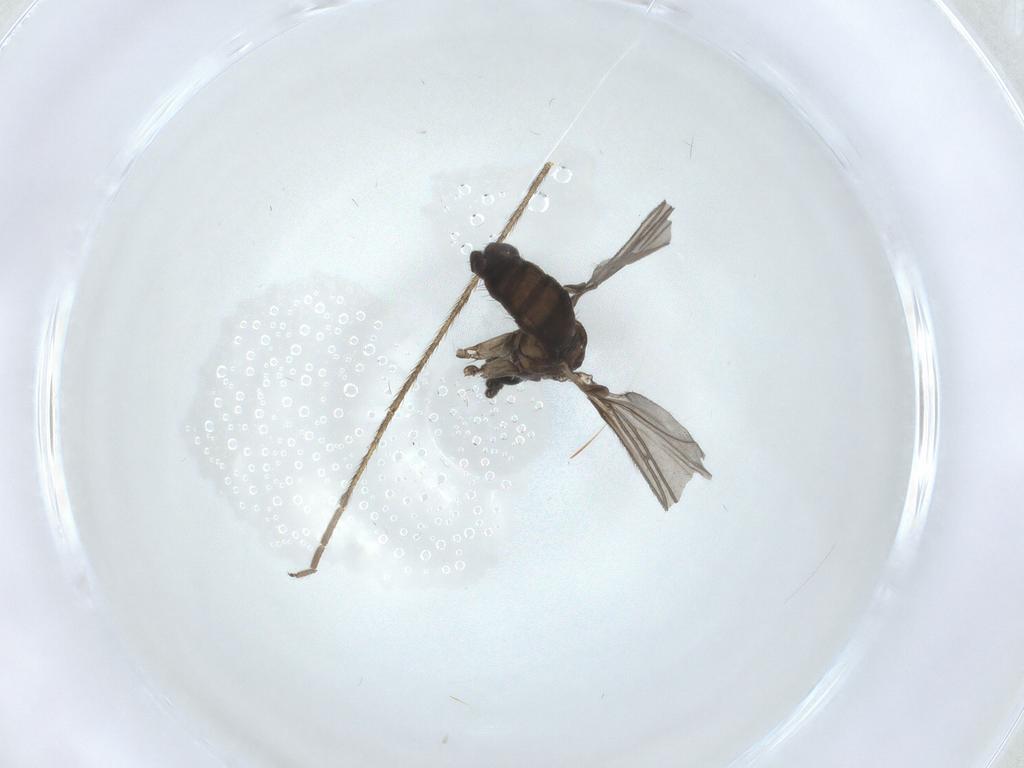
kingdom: Animalia
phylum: Arthropoda
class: Insecta
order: Diptera
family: Sciaridae
